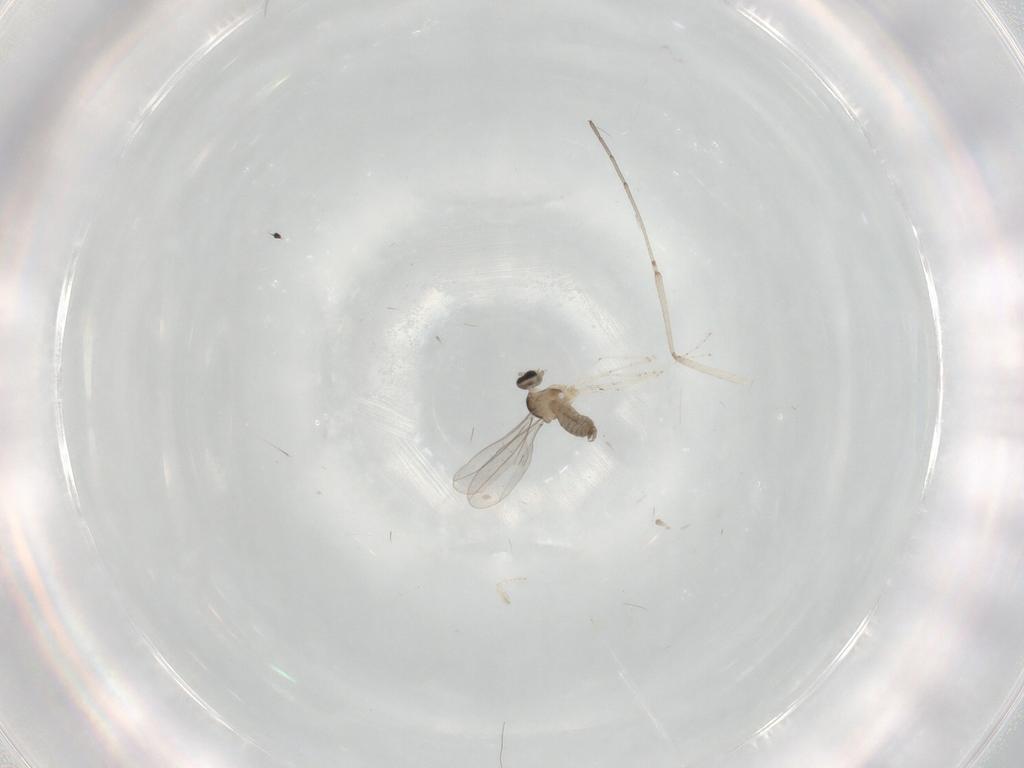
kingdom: Animalia
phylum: Arthropoda
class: Insecta
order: Diptera
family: Cecidomyiidae
